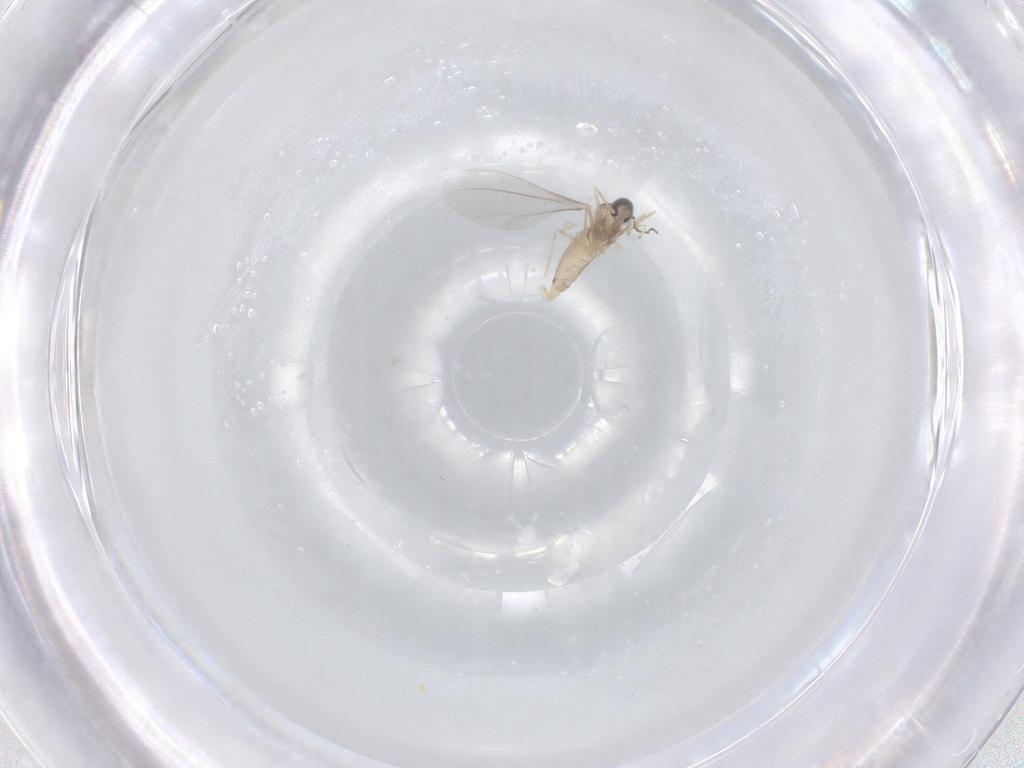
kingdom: Animalia
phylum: Arthropoda
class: Insecta
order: Diptera
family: Cecidomyiidae
